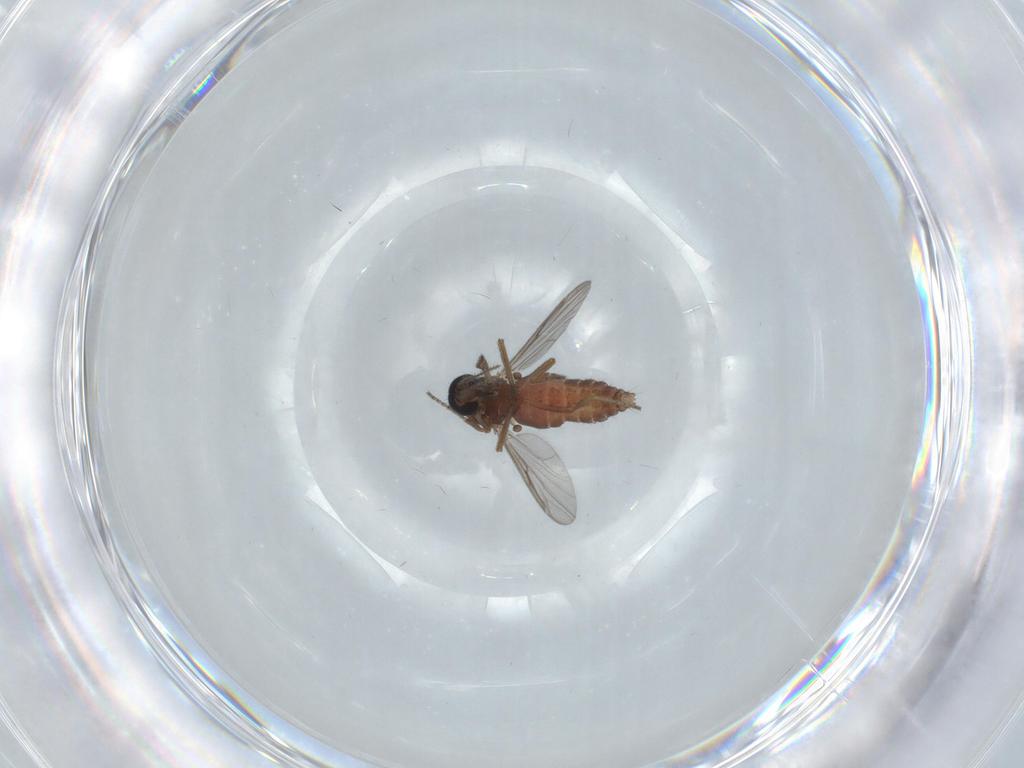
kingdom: Animalia
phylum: Arthropoda
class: Insecta
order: Diptera
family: Ceratopogonidae
